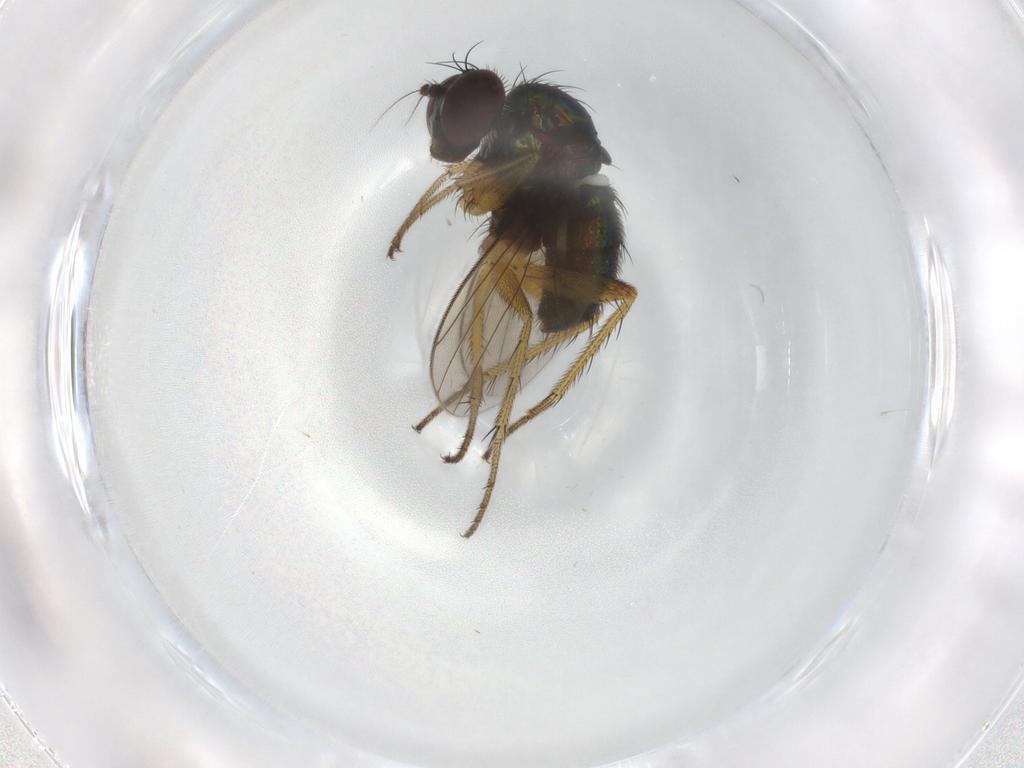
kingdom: Animalia
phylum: Arthropoda
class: Insecta
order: Diptera
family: Dolichopodidae
